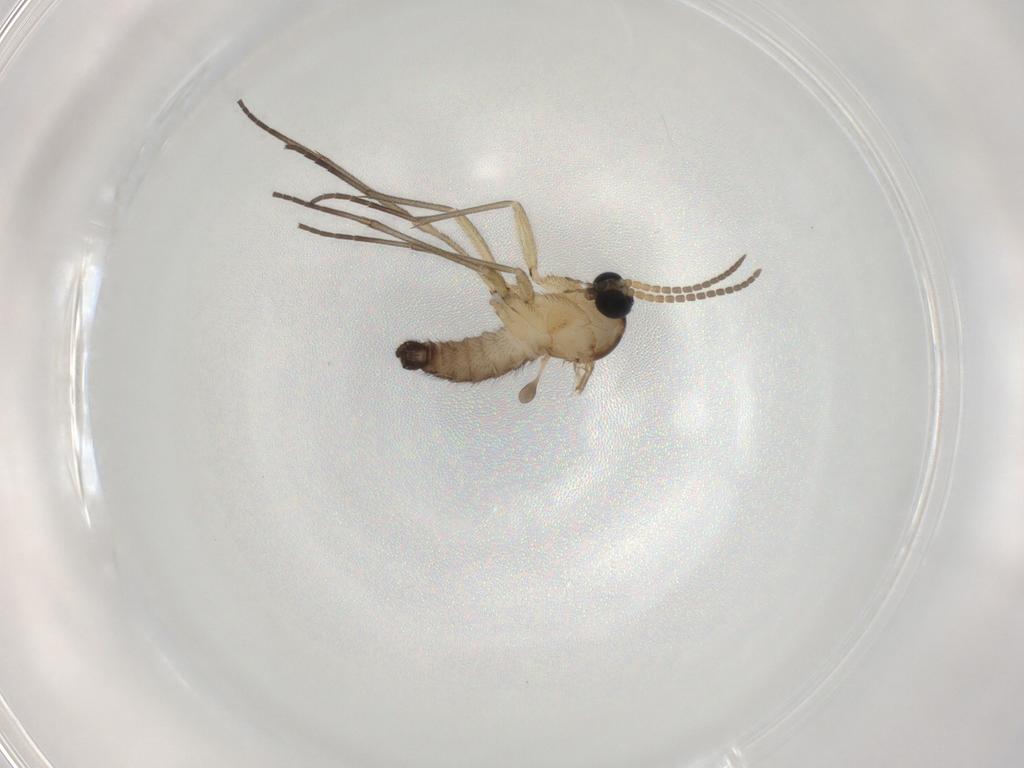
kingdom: Animalia
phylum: Arthropoda
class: Insecta
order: Diptera
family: Sciaridae
